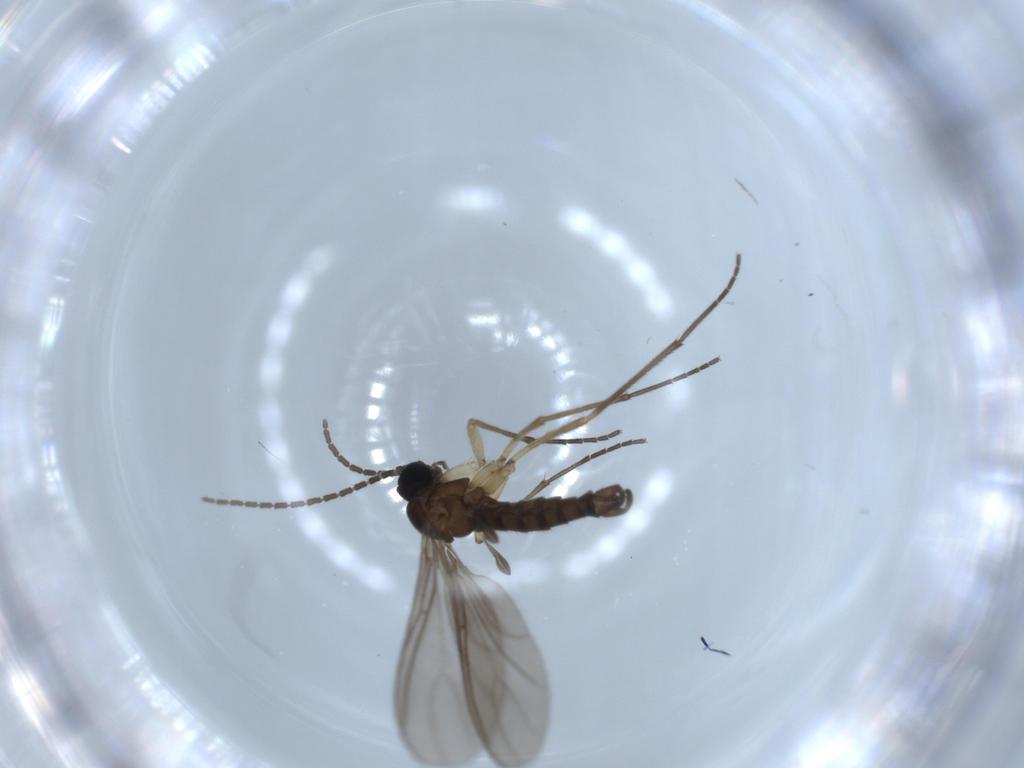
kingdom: Animalia
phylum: Arthropoda
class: Insecta
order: Diptera
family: Sciaridae
